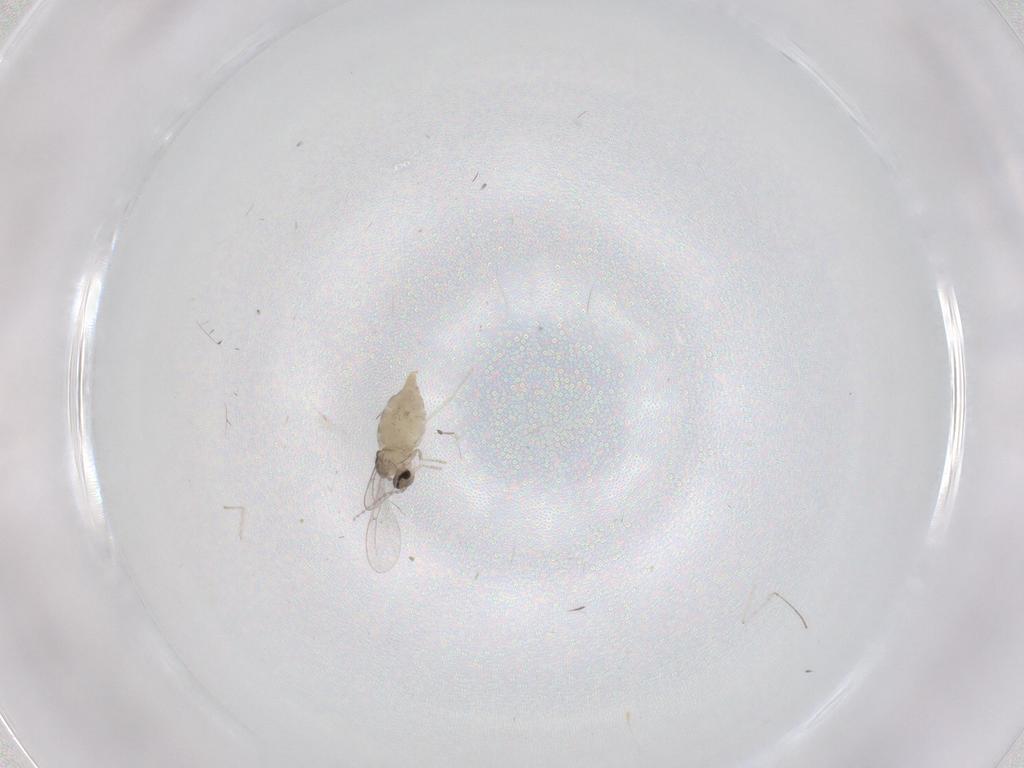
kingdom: Animalia
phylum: Arthropoda
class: Insecta
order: Diptera
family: Cecidomyiidae
